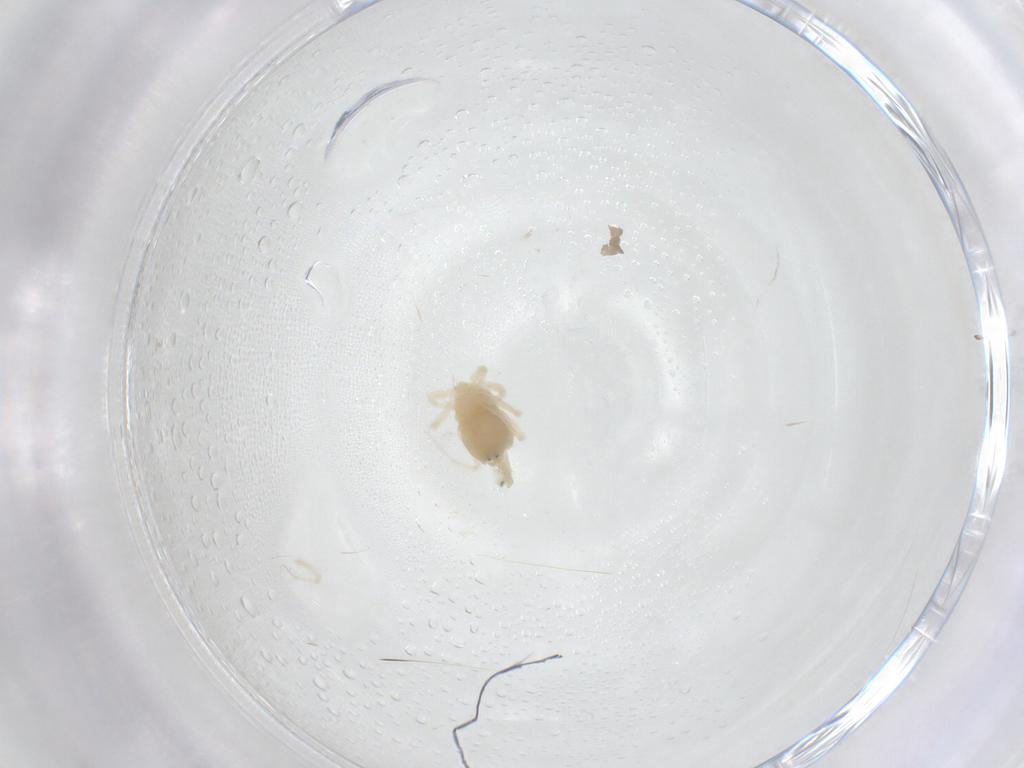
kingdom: Animalia
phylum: Arthropoda
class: Arachnida
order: Trombidiformes
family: Anystidae
